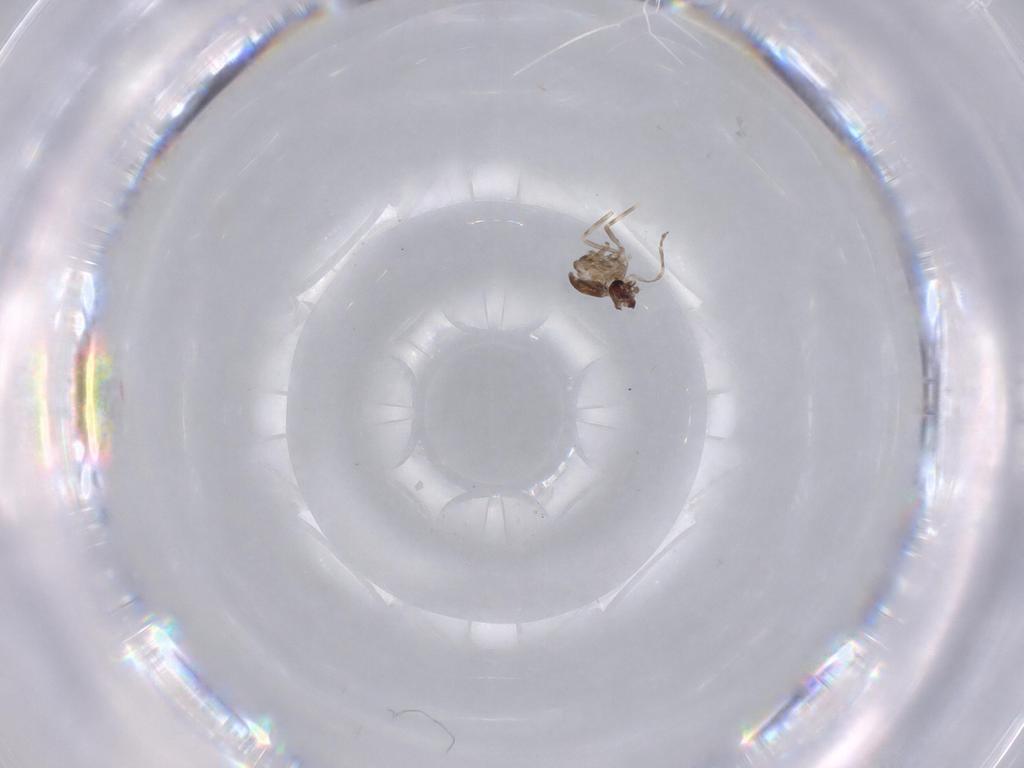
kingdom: Animalia
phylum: Arthropoda
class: Insecta
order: Diptera
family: Ceratopogonidae
